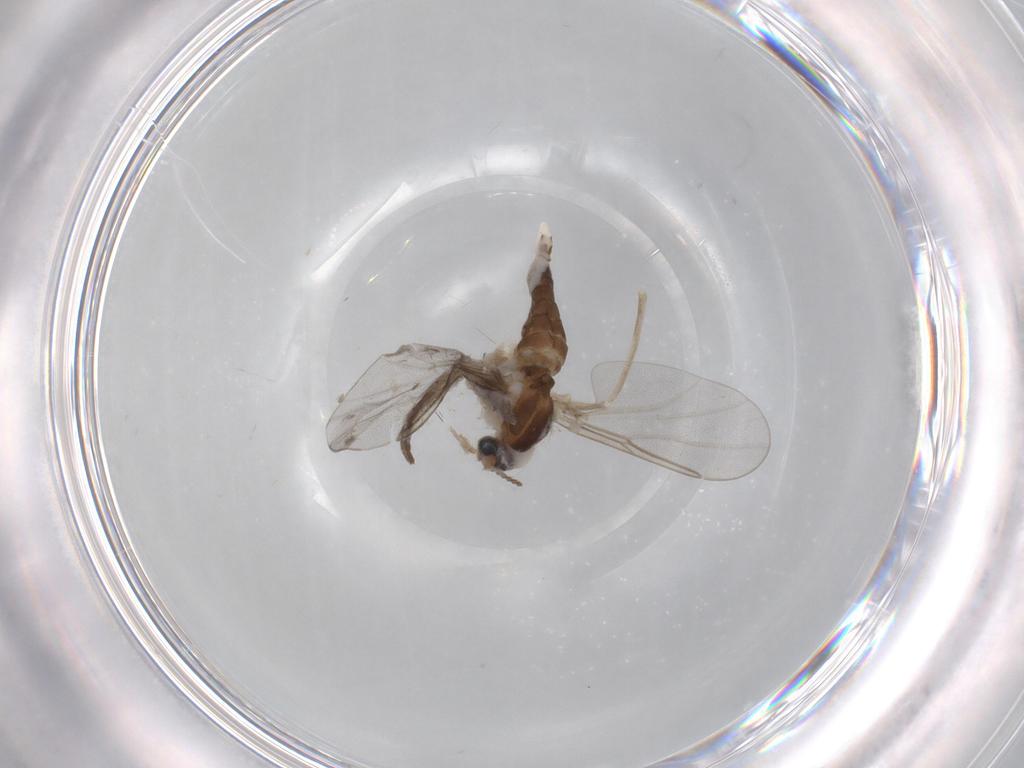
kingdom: Animalia
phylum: Arthropoda
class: Insecta
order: Diptera
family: Cecidomyiidae
